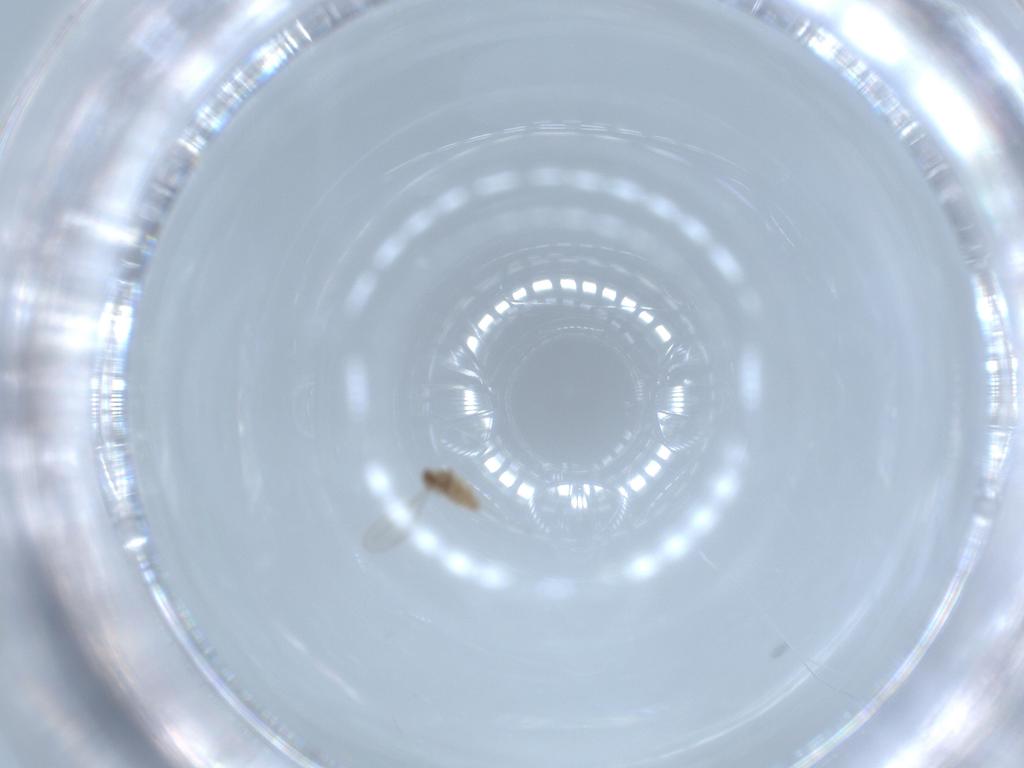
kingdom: Animalia
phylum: Arthropoda
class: Insecta
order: Diptera
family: Cecidomyiidae
